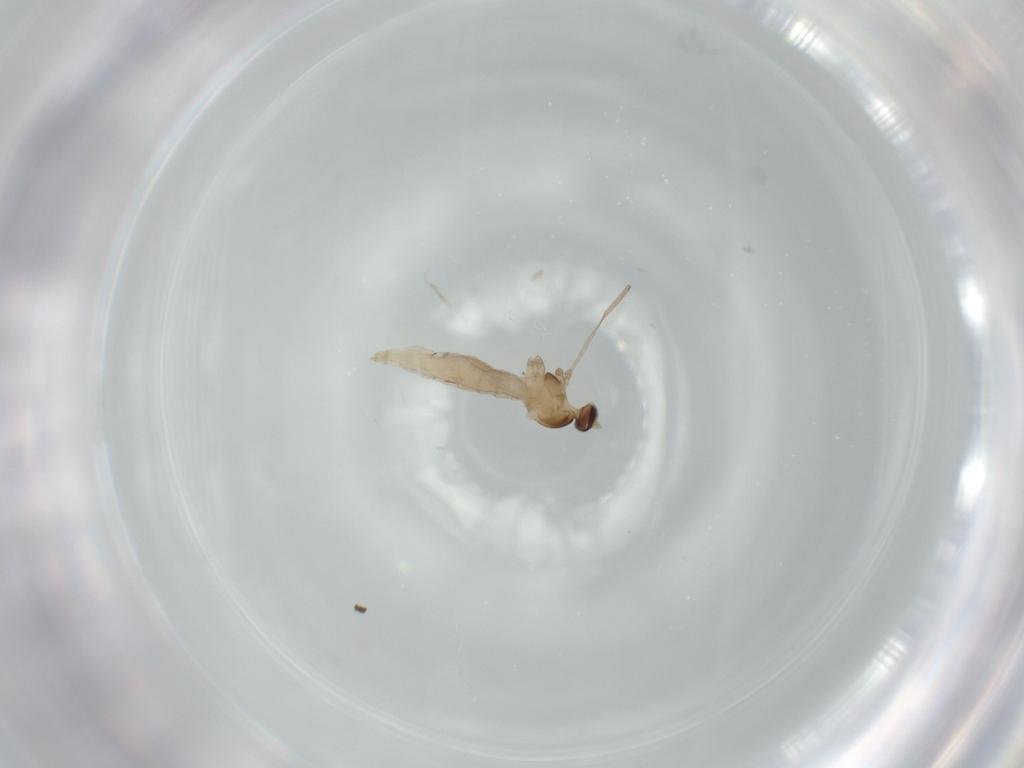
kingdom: Animalia
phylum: Arthropoda
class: Insecta
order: Diptera
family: Cecidomyiidae
